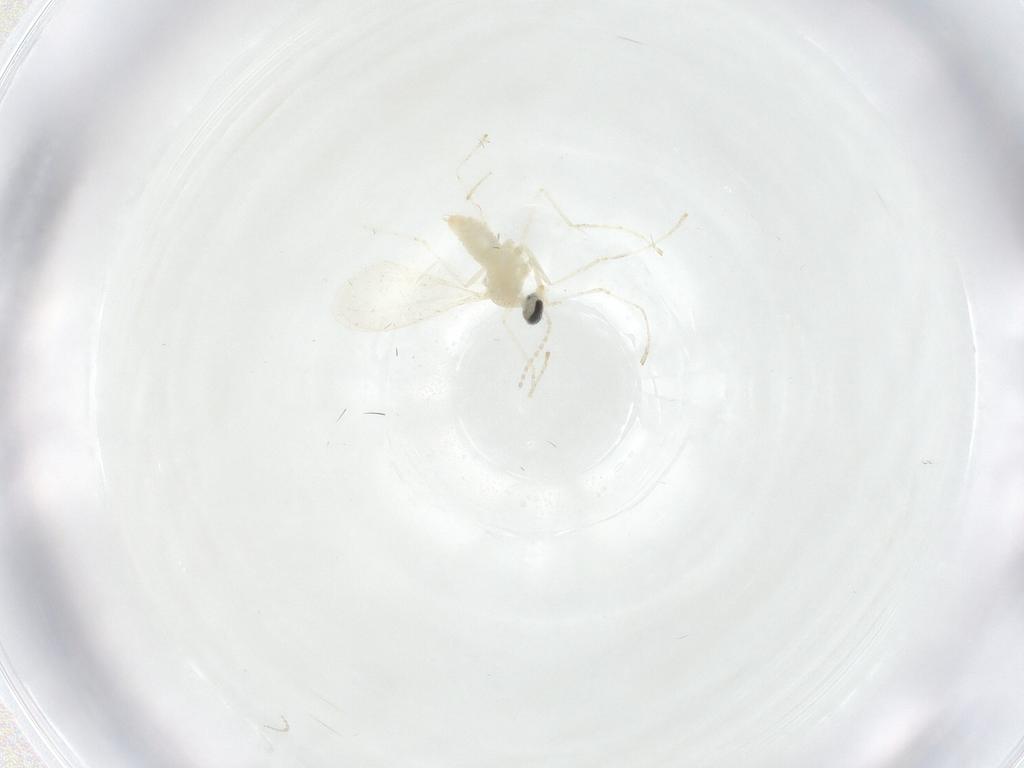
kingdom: Animalia
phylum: Arthropoda
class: Insecta
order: Diptera
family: Cecidomyiidae
